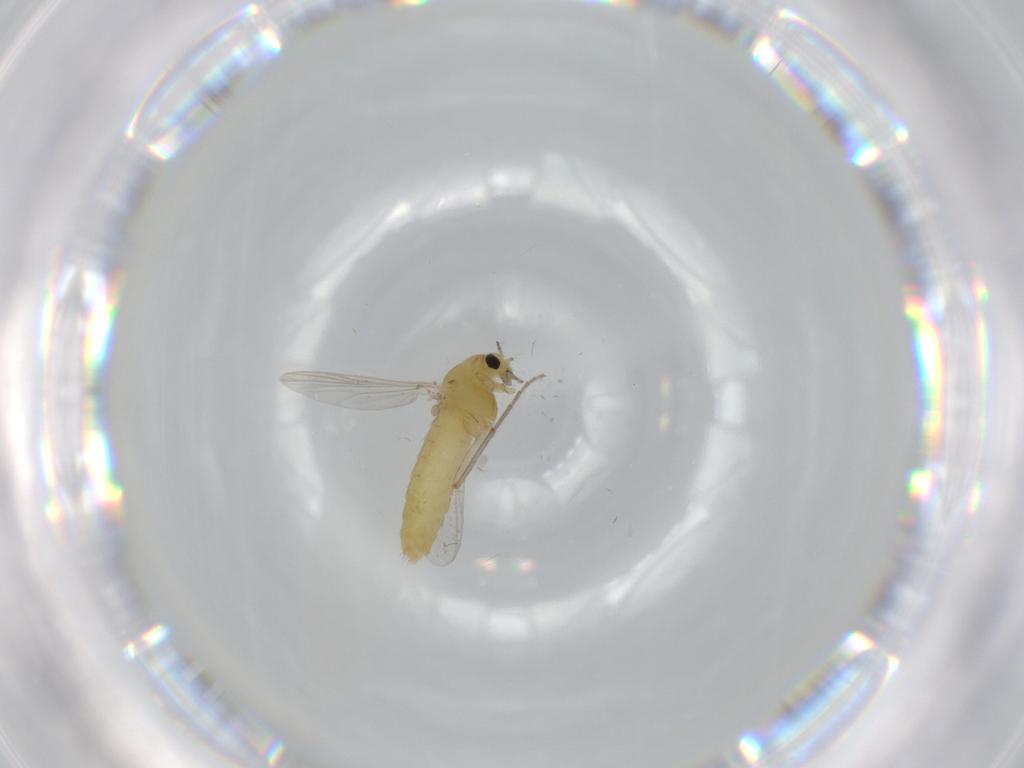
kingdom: Animalia
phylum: Arthropoda
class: Insecta
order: Diptera
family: Chironomidae
